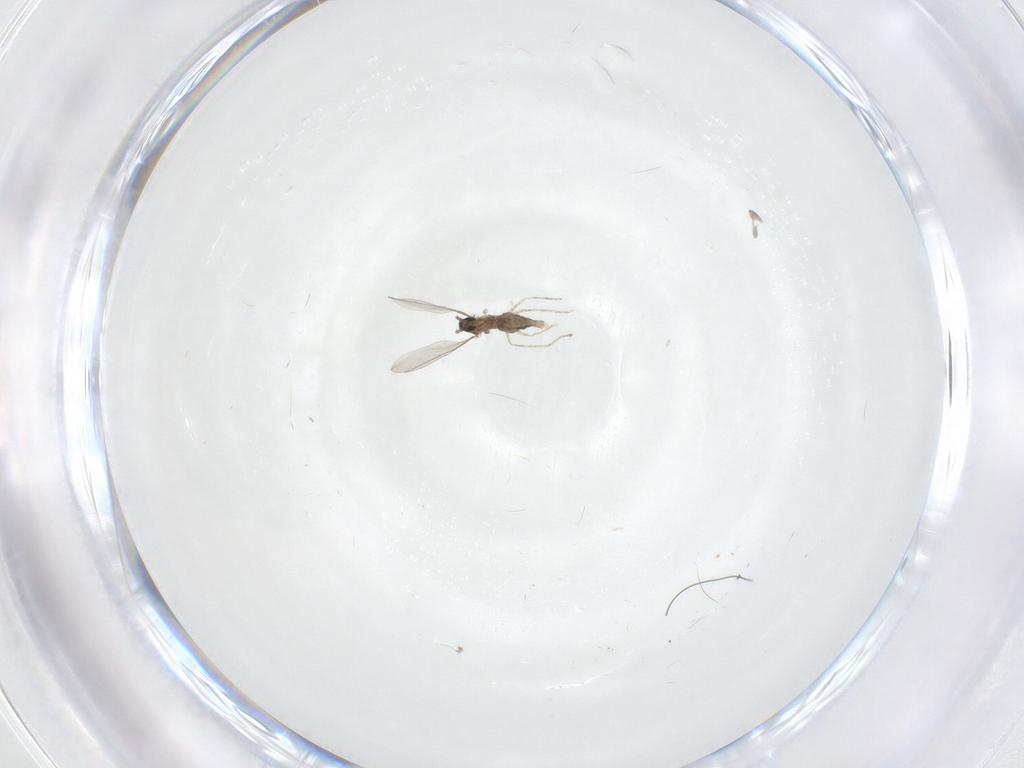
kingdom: Animalia
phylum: Arthropoda
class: Insecta
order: Diptera
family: Cecidomyiidae
